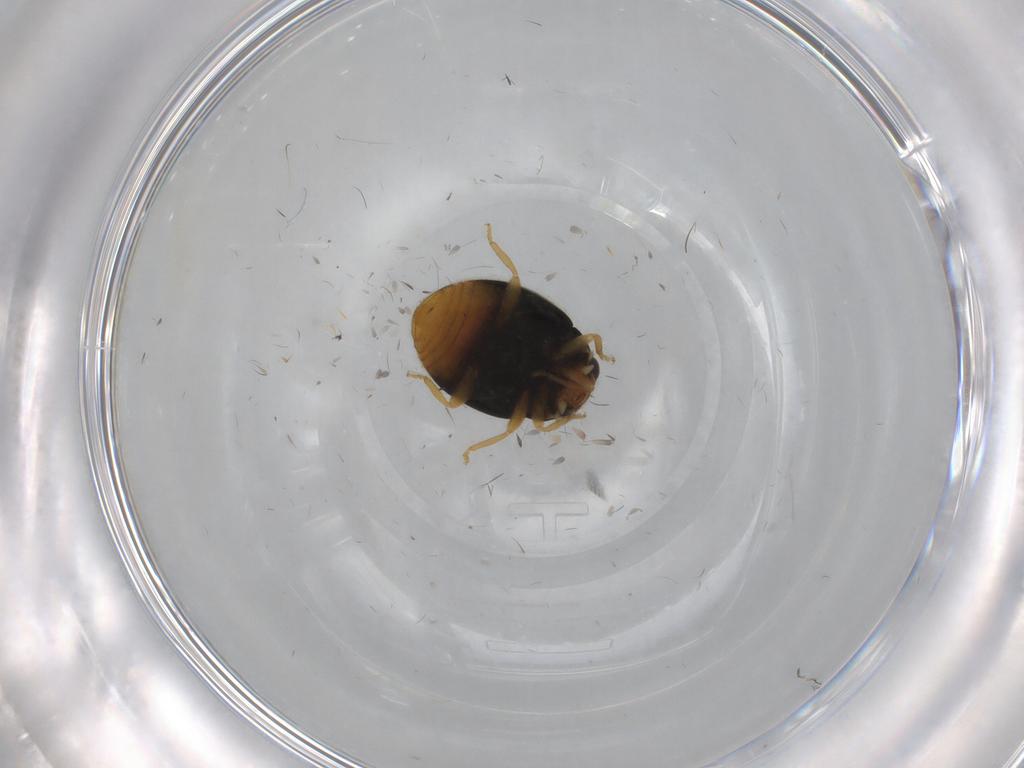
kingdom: Animalia
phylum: Arthropoda
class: Insecta
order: Coleoptera
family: Coccinellidae
